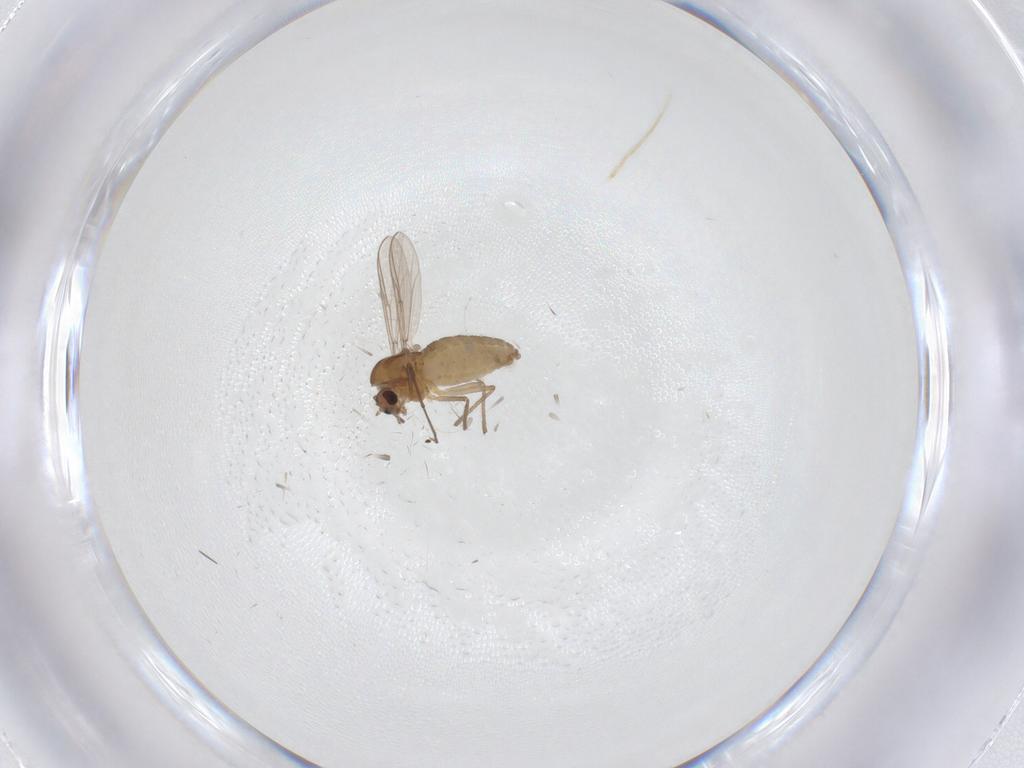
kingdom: Animalia
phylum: Arthropoda
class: Insecta
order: Diptera
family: Chironomidae
